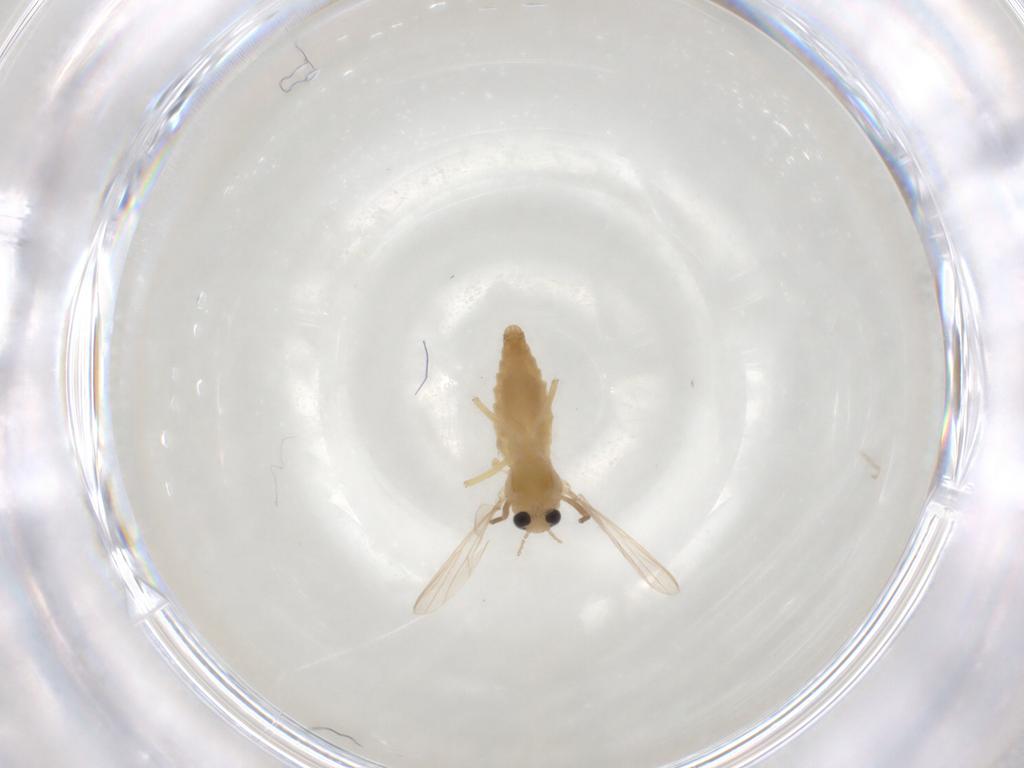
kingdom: Animalia
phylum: Arthropoda
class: Insecta
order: Diptera
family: Chironomidae
